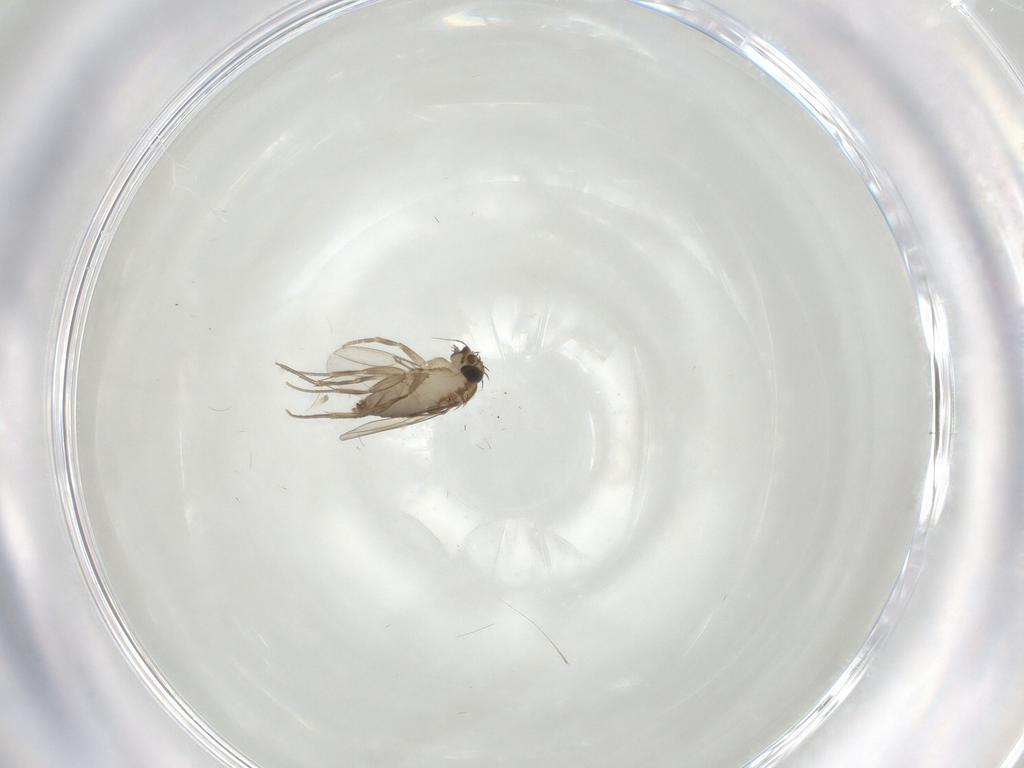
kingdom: Animalia
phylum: Arthropoda
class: Insecta
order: Diptera
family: Phoridae
